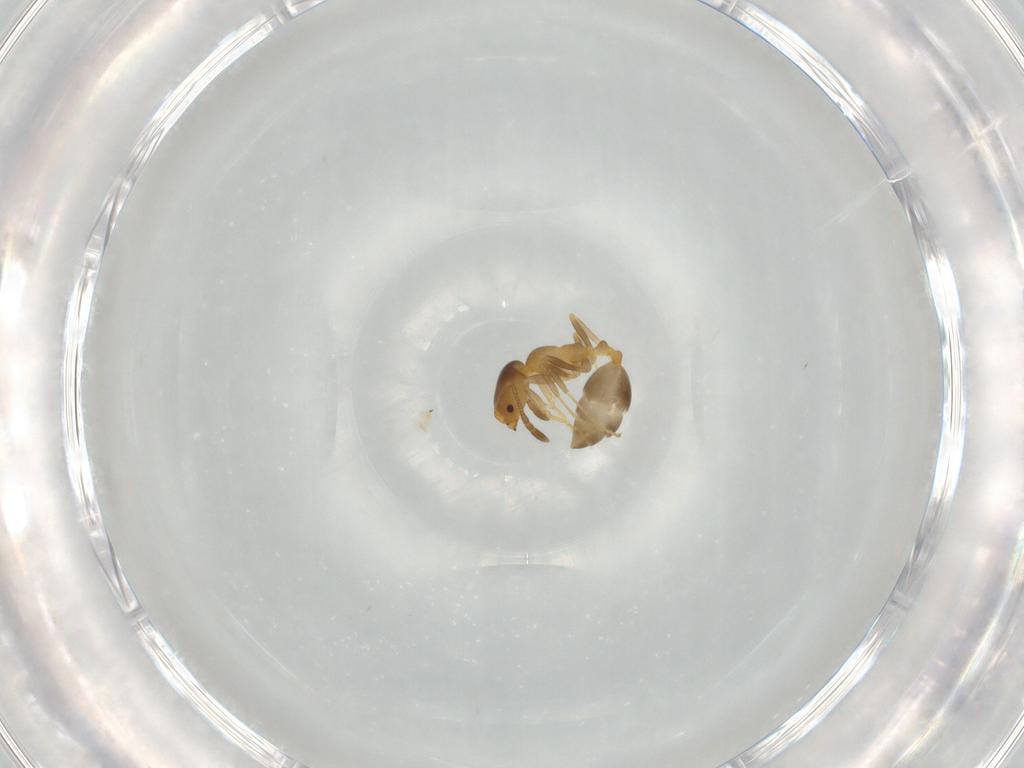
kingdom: Animalia
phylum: Arthropoda
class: Insecta
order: Hymenoptera
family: Formicidae
